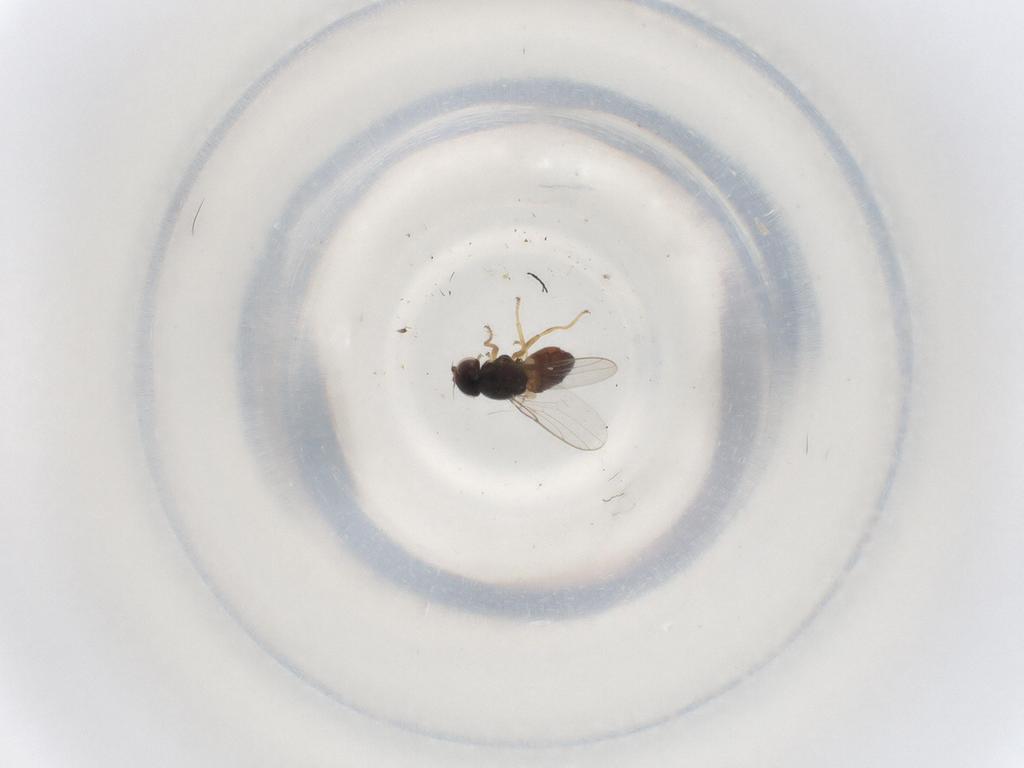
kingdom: Animalia
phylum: Arthropoda
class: Insecta
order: Diptera
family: Chloropidae
